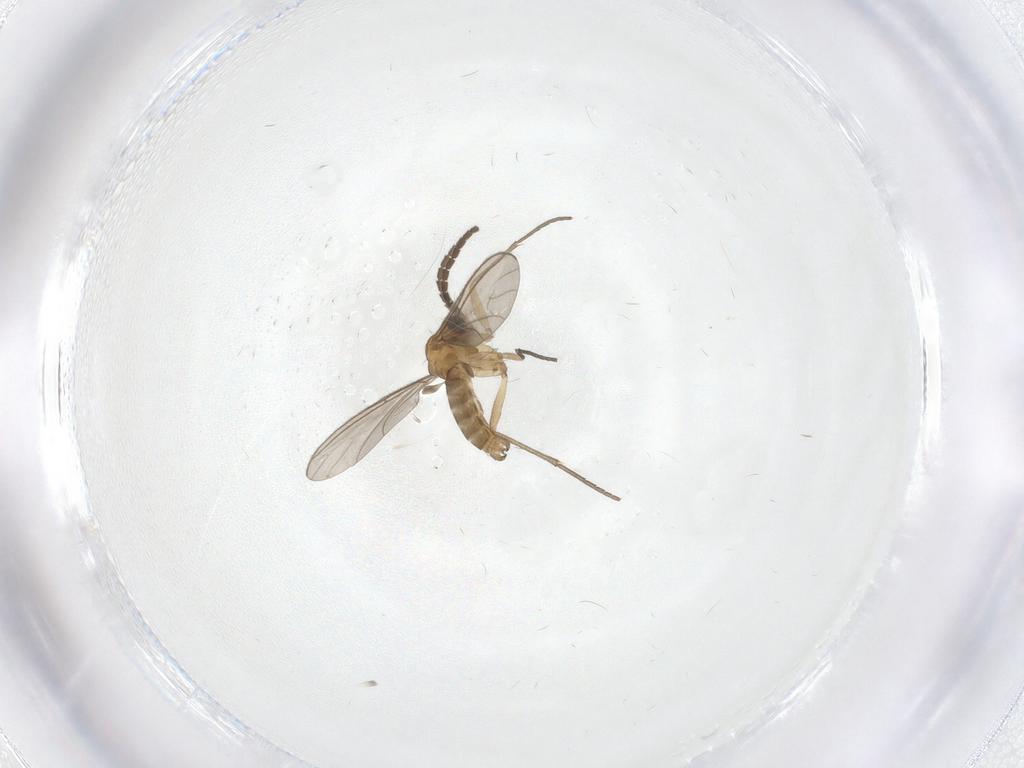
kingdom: Animalia
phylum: Arthropoda
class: Insecta
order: Diptera
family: Sciaridae
